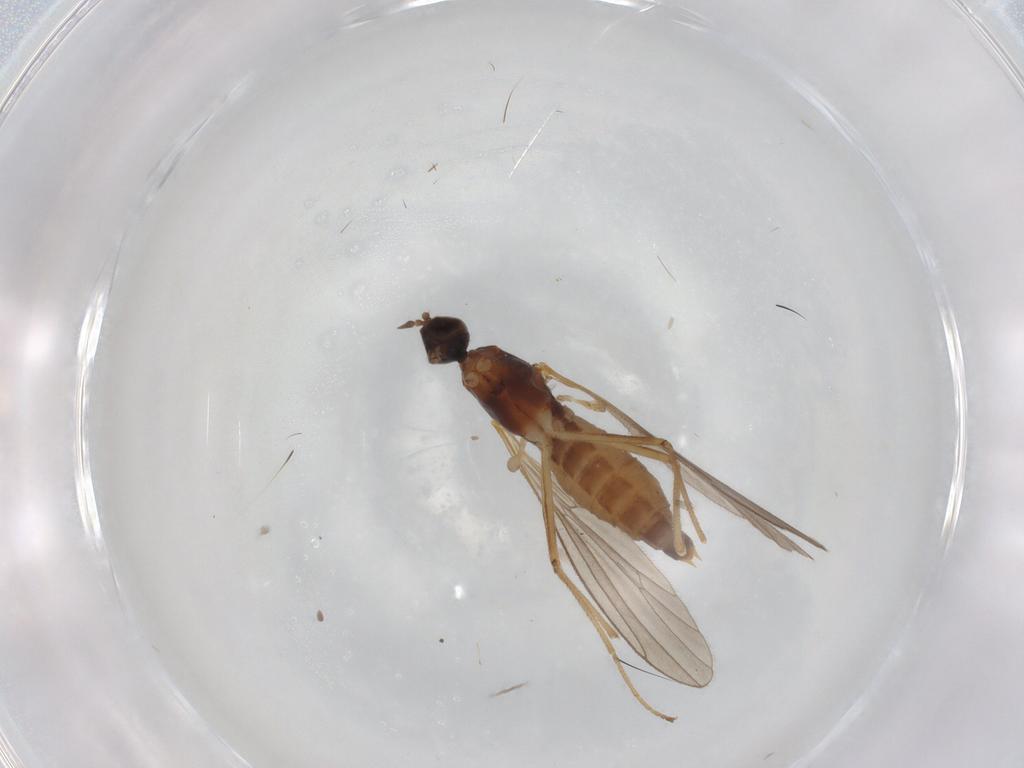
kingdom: Animalia
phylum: Arthropoda
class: Insecta
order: Diptera
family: Empididae
